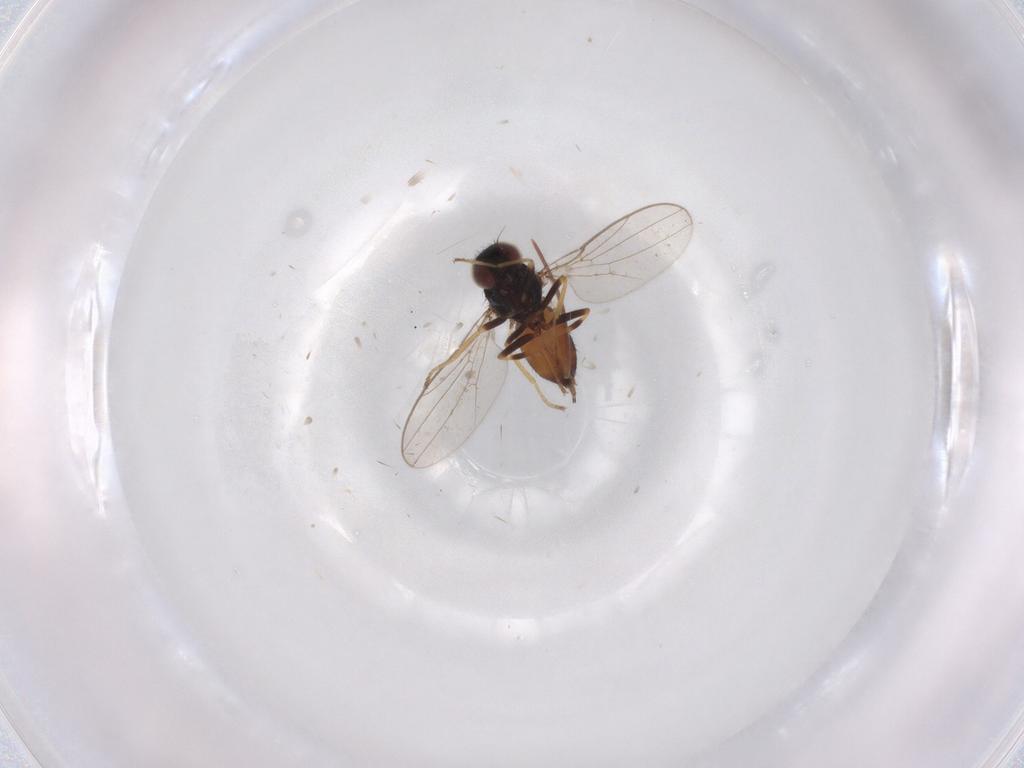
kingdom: Animalia
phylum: Arthropoda
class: Insecta
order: Diptera
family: Chloropidae
